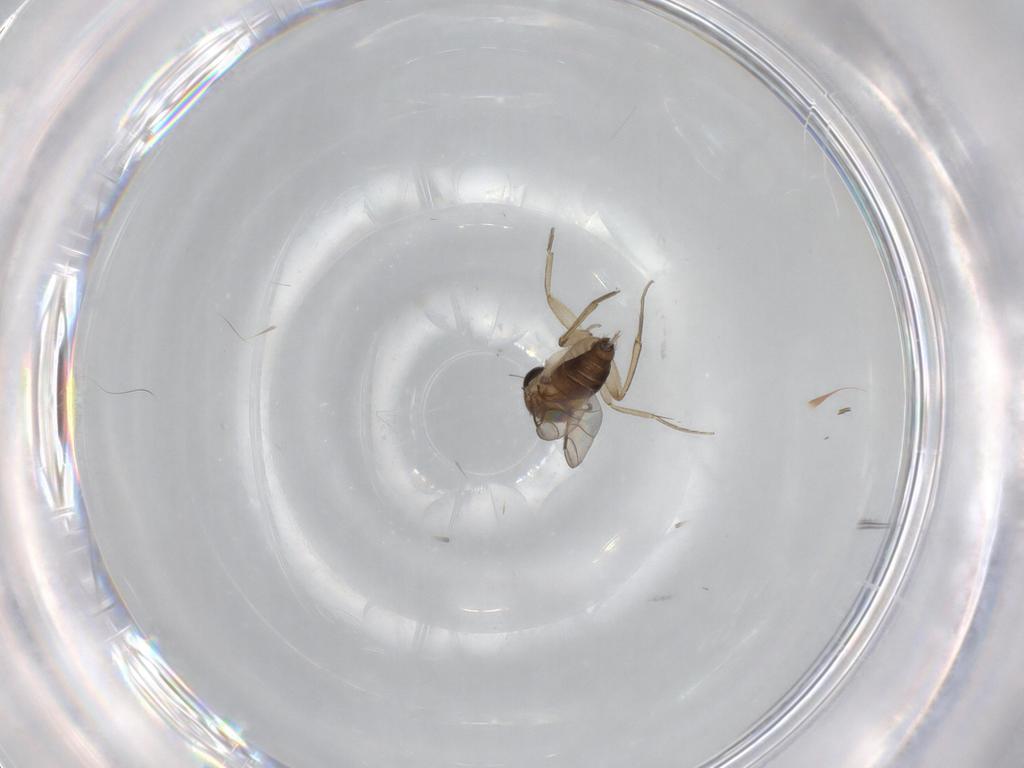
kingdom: Animalia
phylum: Arthropoda
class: Insecta
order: Diptera
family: Phoridae
